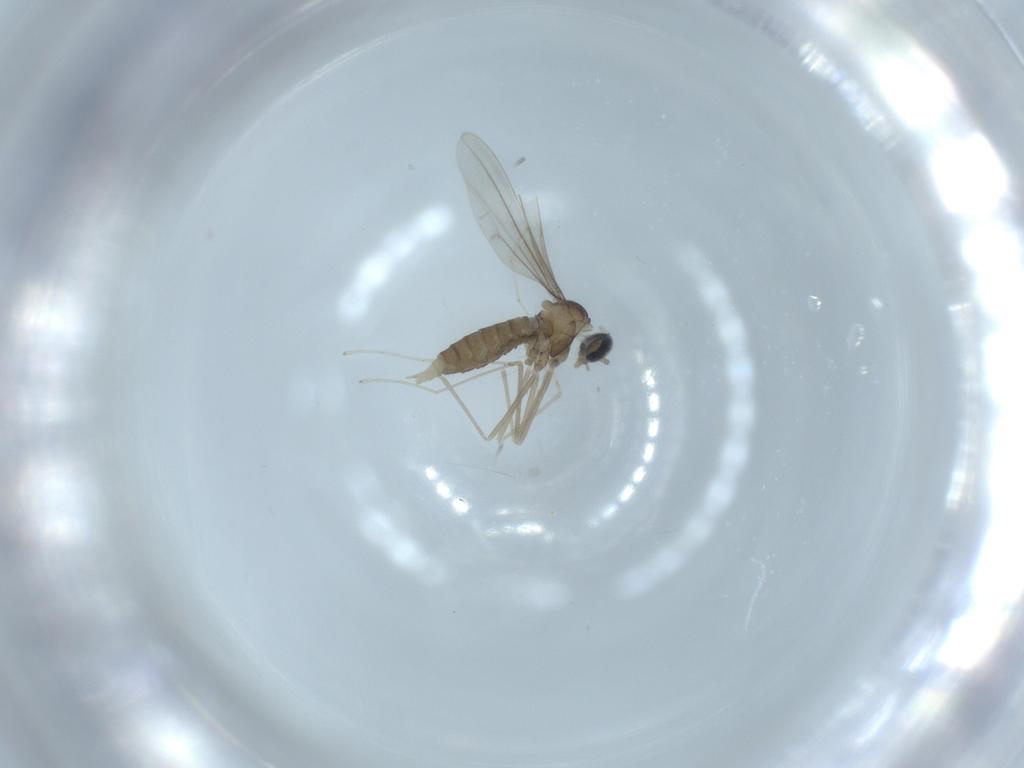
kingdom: Animalia
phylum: Arthropoda
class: Insecta
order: Diptera
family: Cecidomyiidae
